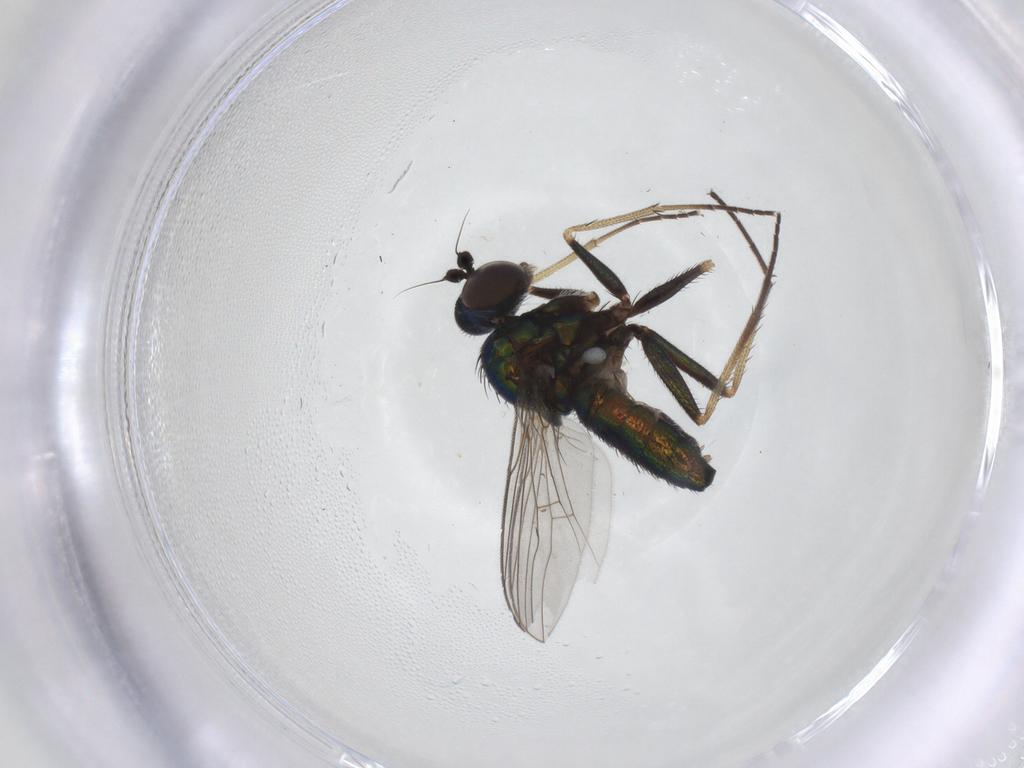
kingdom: Animalia
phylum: Arthropoda
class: Insecta
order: Diptera
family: Dolichopodidae
